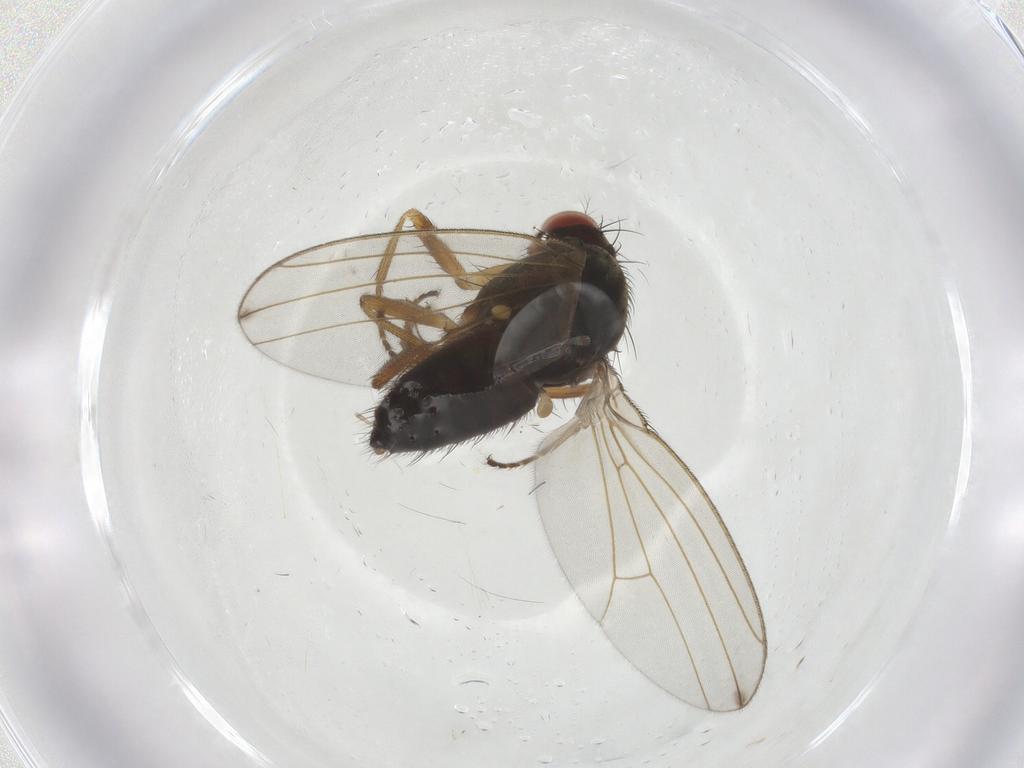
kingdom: Animalia
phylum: Arthropoda
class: Insecta
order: Diptera
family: Drosophilidae
